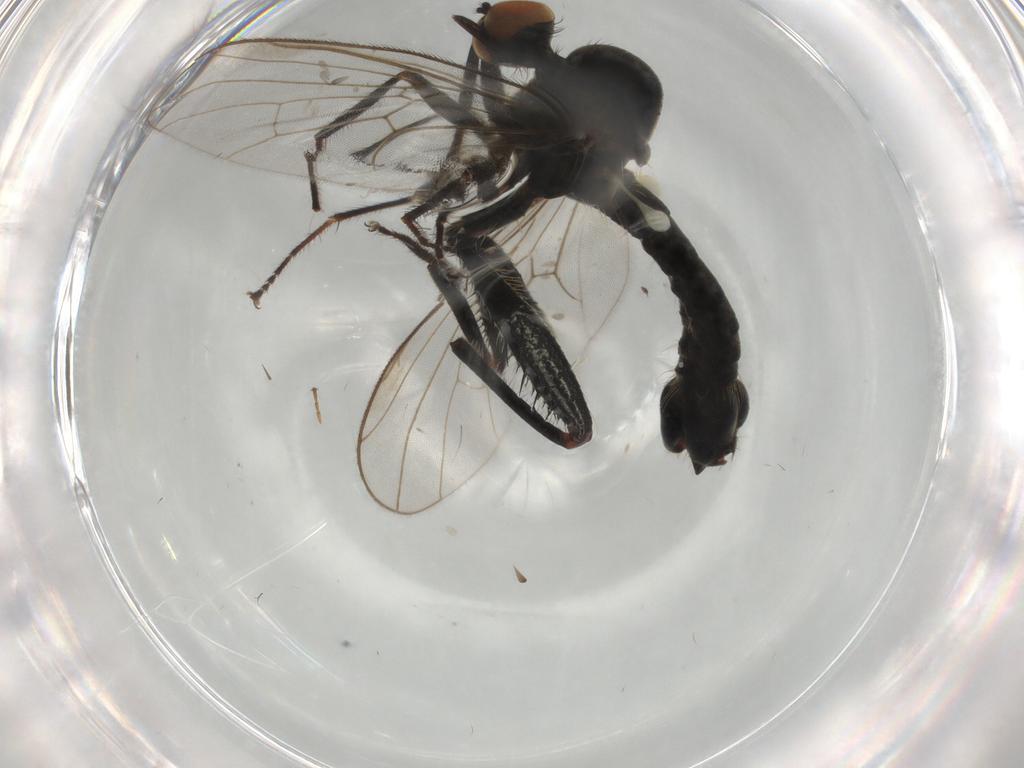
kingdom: Animalia
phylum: Arthropoda
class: Insecta
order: Diptera
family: Hybotidae
